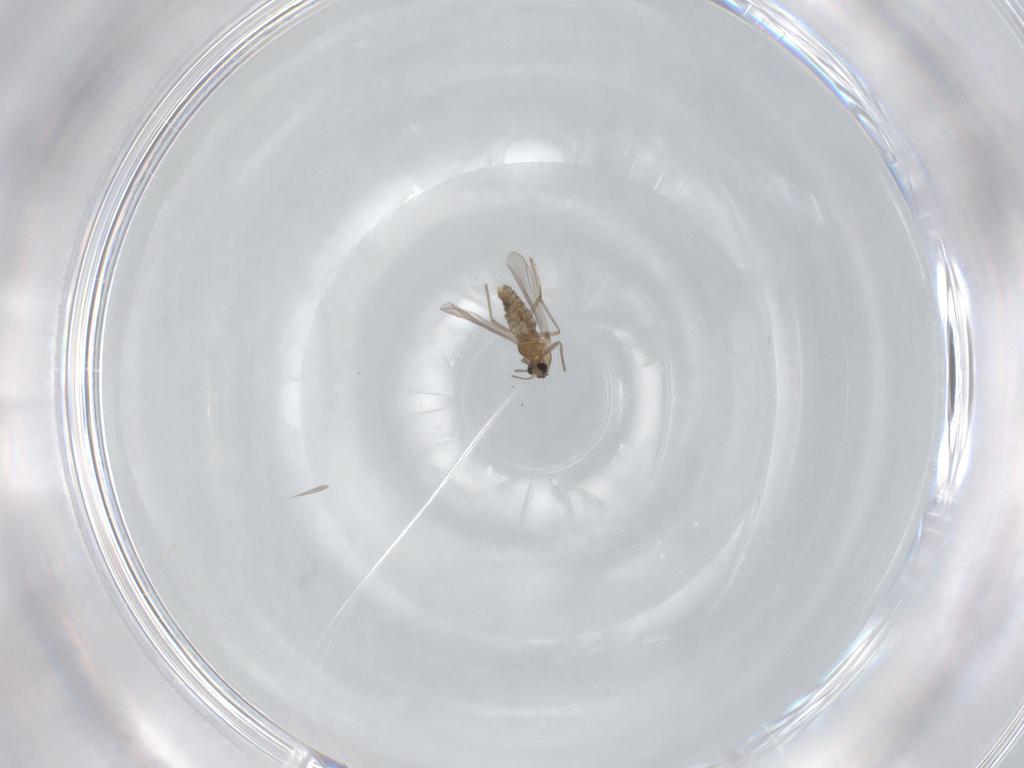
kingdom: Animalia
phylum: Arthropoda
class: Insecta
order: Diptera
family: Chironomidae
